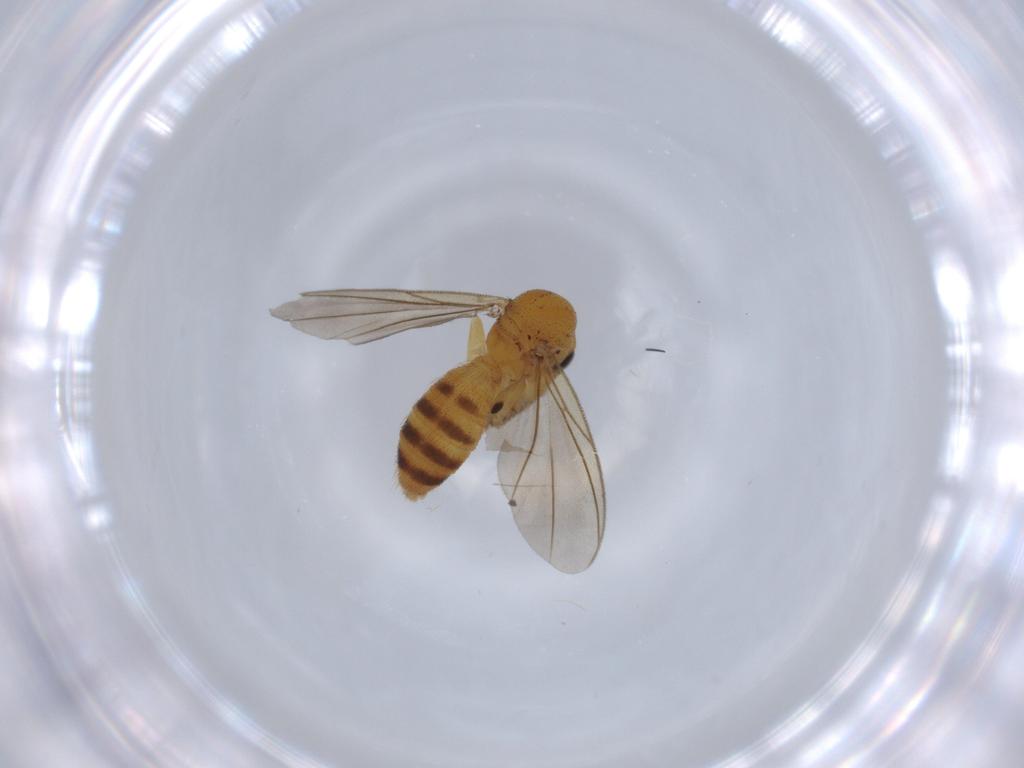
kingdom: Animalia
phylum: Arthropoda
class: Insecta
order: Diptera
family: Mycetophilidae
